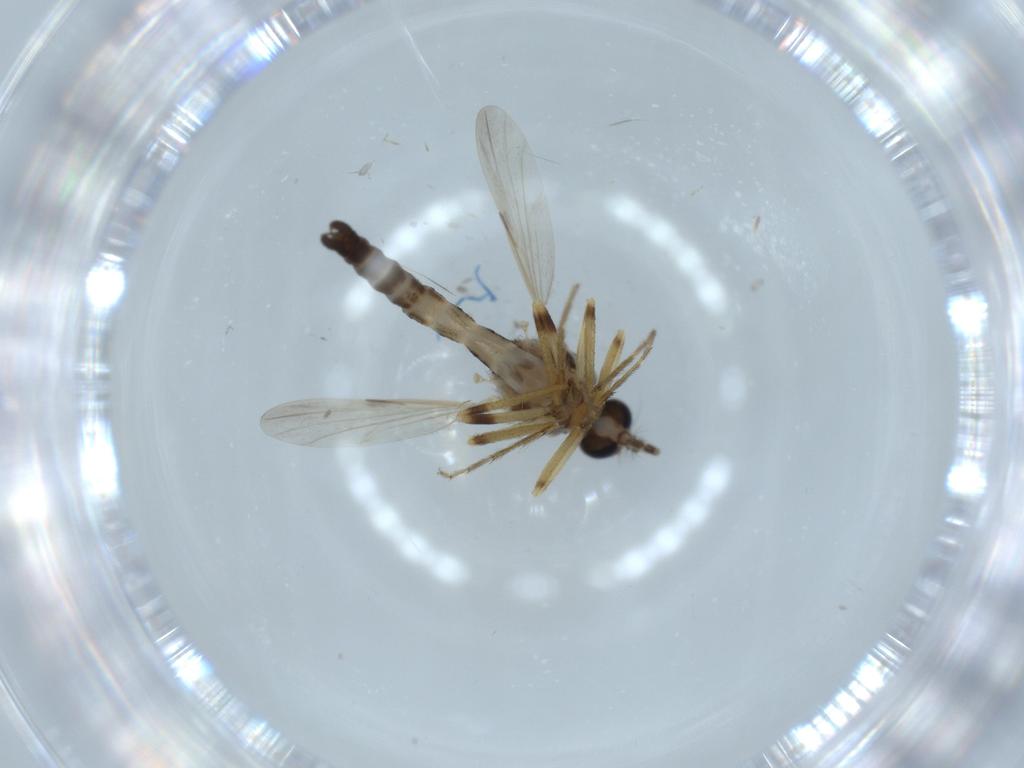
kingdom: Animalia
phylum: Arthropoda
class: Insecta
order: Diptera
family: Ceratopogonidae
